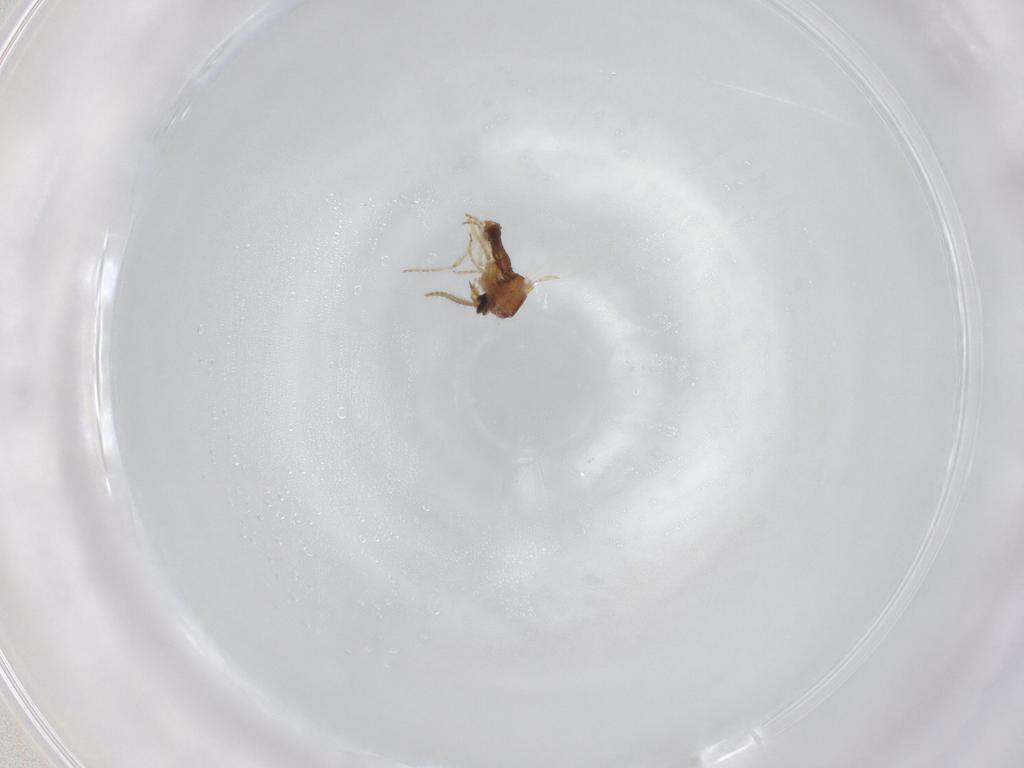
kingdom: Animalia
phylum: Arthropoda
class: Insecta
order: Diptera
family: Ceratopogonidae
